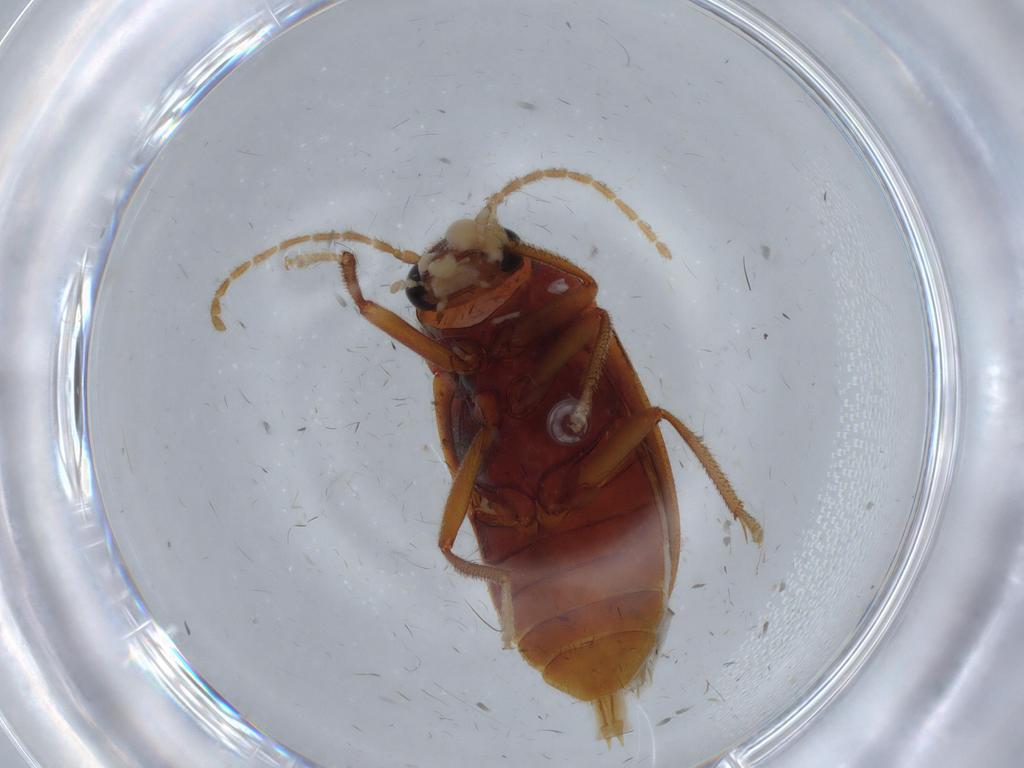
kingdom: Animalia
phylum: Arthropoda
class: Insecta
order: Coleoptera
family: Ptilodactylidae
